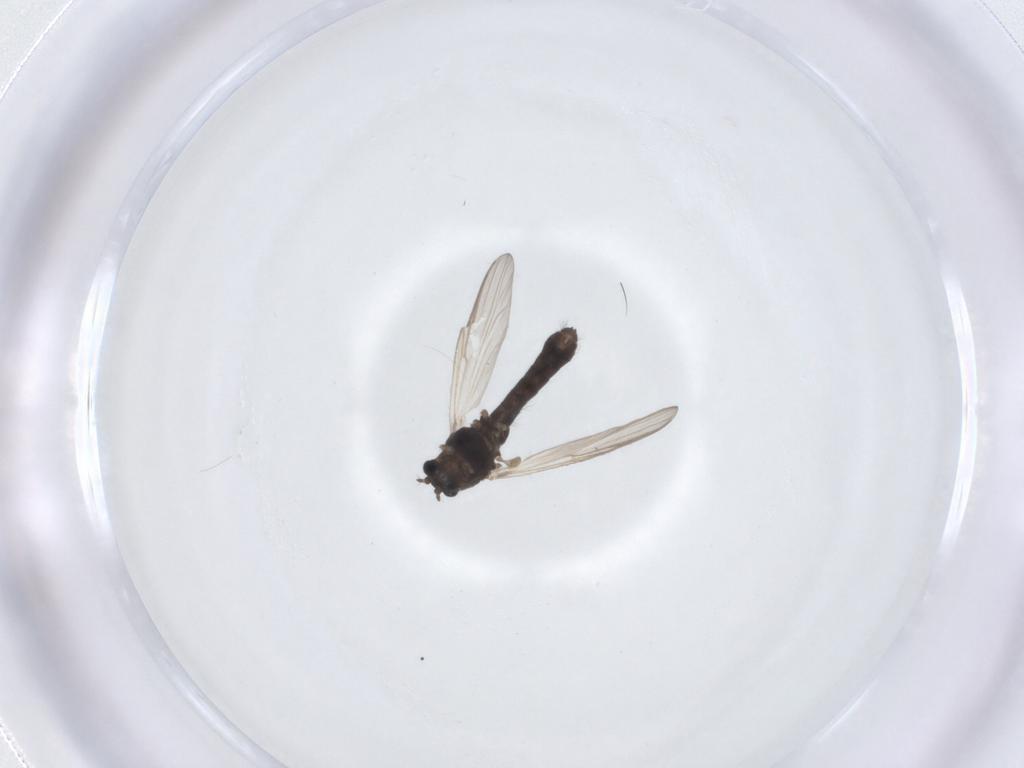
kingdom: Animalia
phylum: Arthropoda
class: Insecta
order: Diptera
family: Chironomidae
